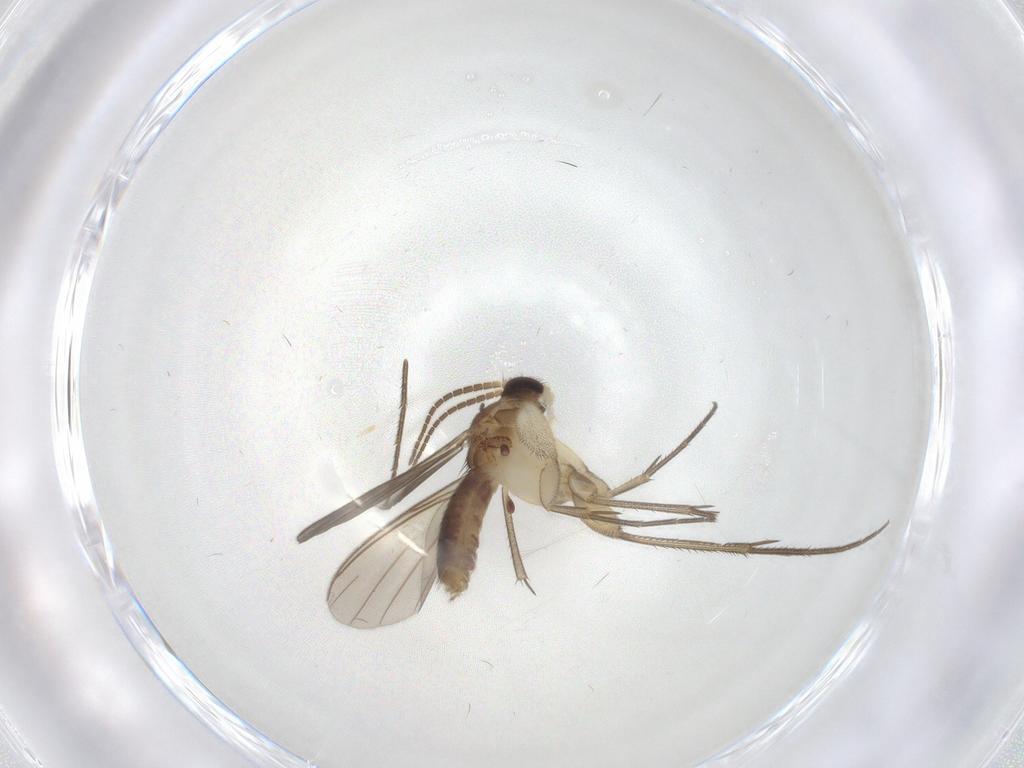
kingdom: Animalia
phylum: Arthropoda
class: Insecta
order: Diptera
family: Mycetophilidae
